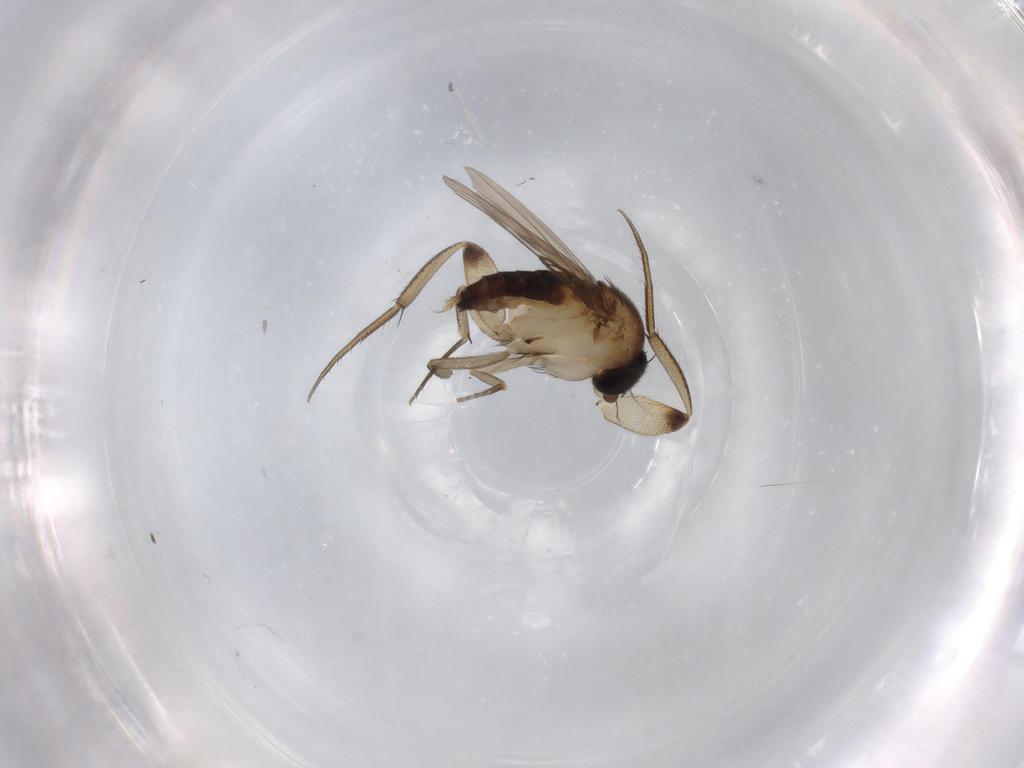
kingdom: Animalia
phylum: Arthropoda
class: Insecta
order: Diptera
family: Phoridae
